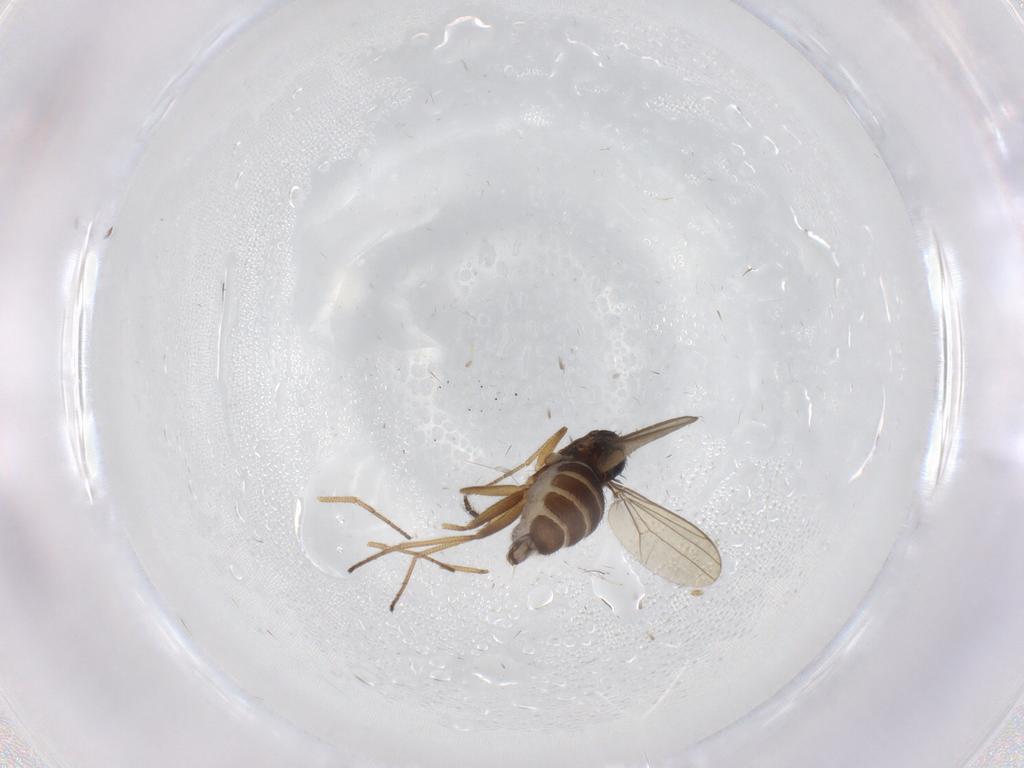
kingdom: Animalia
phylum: Arthropoda
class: Insecta
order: Diptera
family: Dolichopodidae
